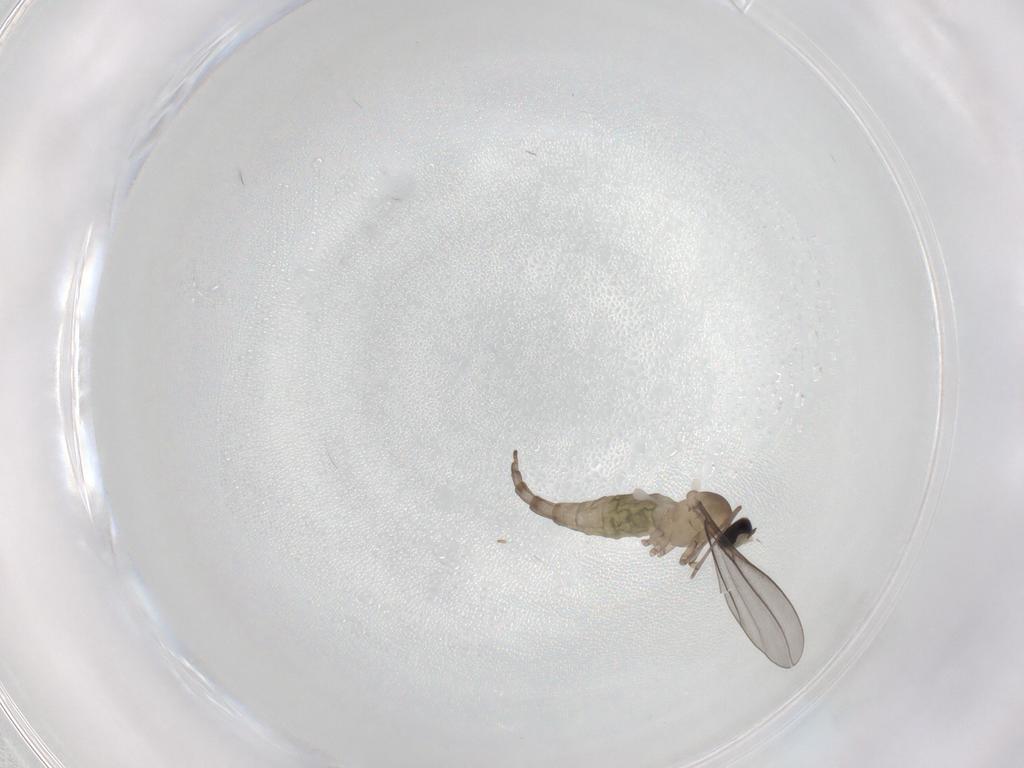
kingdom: Animalia
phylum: Arthropoda
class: Insecta
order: Diptera
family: Cecidomyiidae
